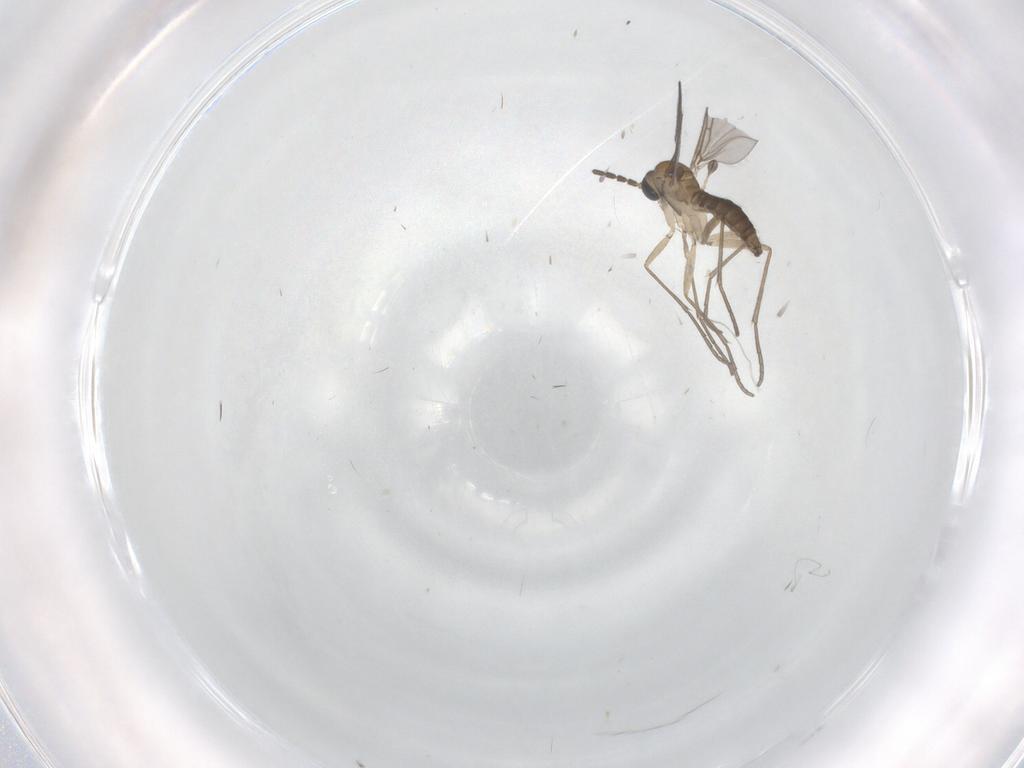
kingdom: Animalia
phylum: Arthropoda
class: Insecta
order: Diptera
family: Sciaridae
